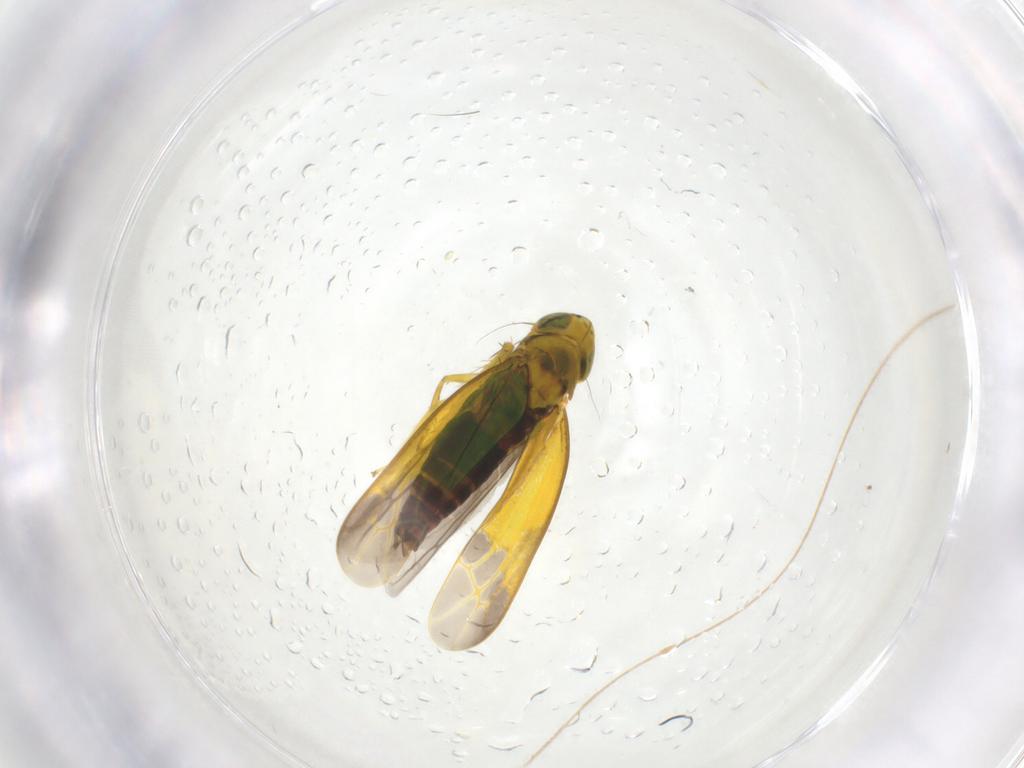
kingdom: Animalia
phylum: Arthropoda
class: Insecta
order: Hemiptera
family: Cicadellidae
